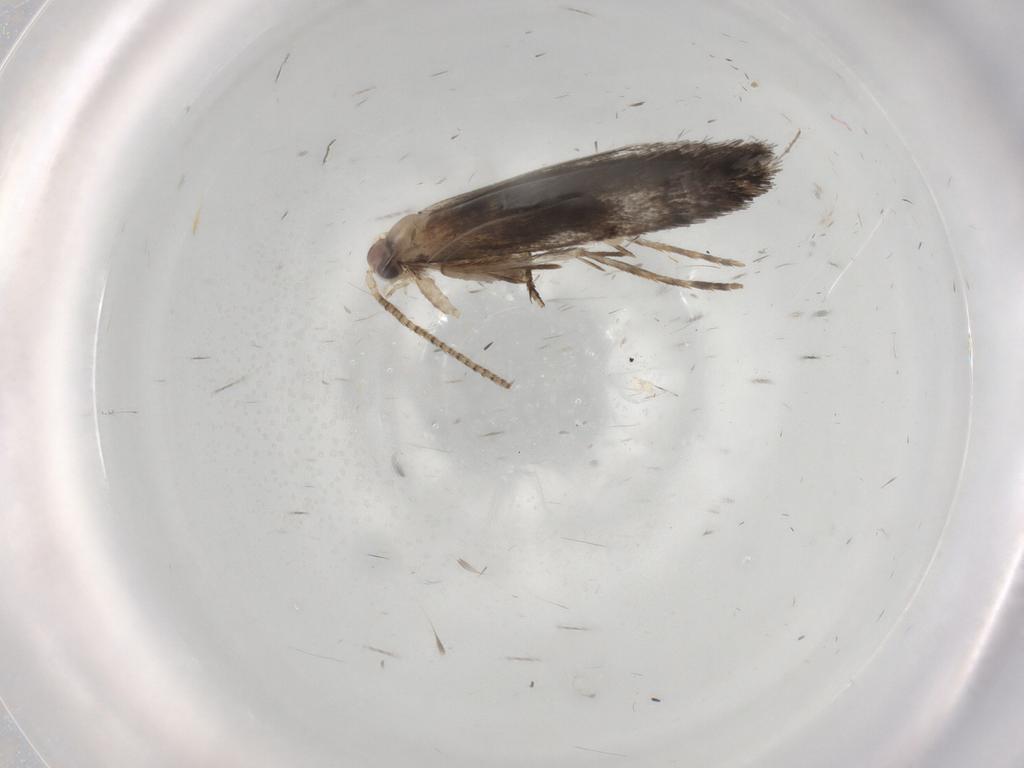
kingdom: Animalia
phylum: Arthropoda
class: Insecta
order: Lepidoptera
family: Tineidae
